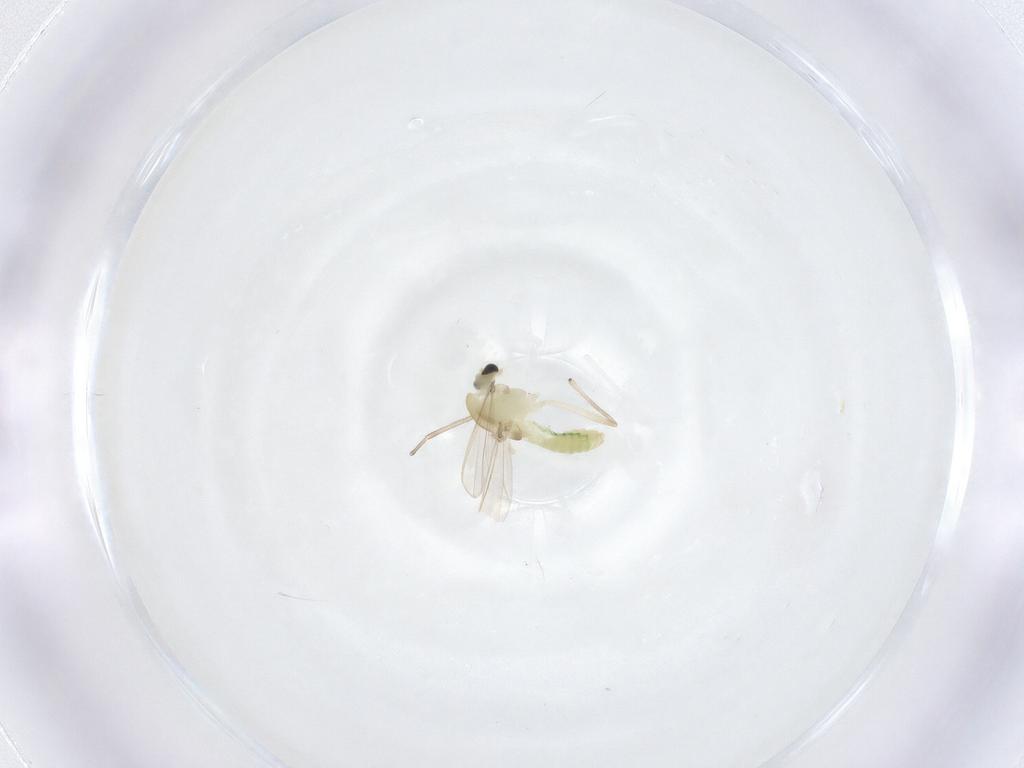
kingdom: Animalia
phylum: Arthropoda
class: Insecta
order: Diptera
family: Chironomidae
